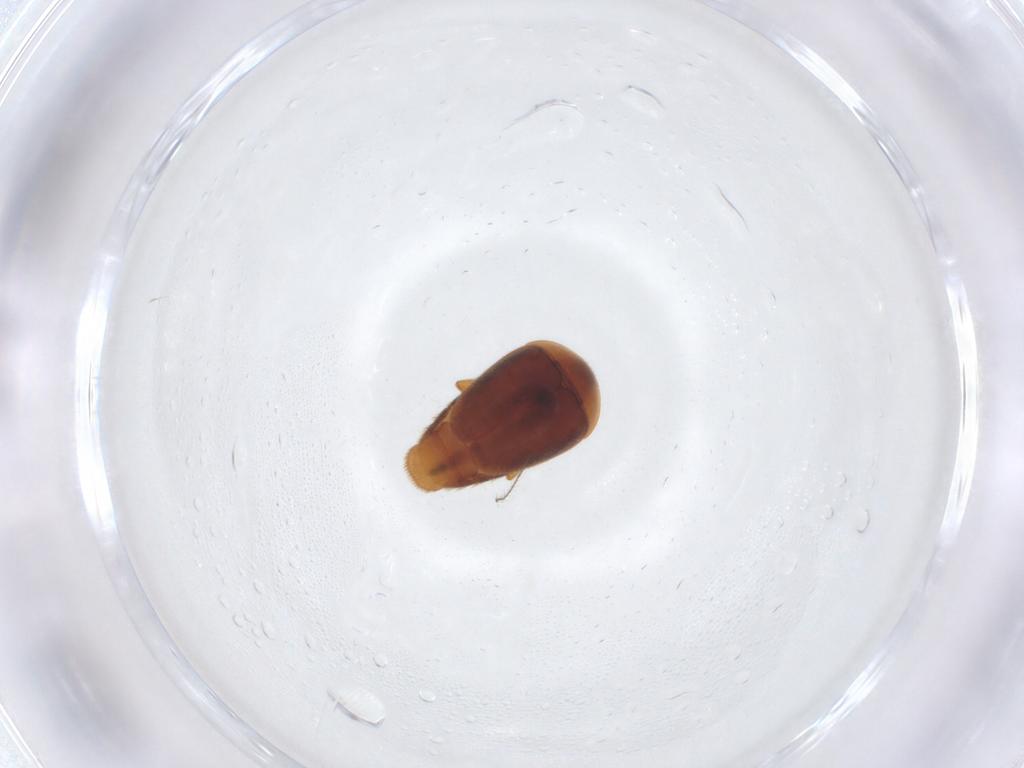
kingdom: Animalia
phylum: Arthropoda
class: Insecta
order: Coleoptera
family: Corylophidae
